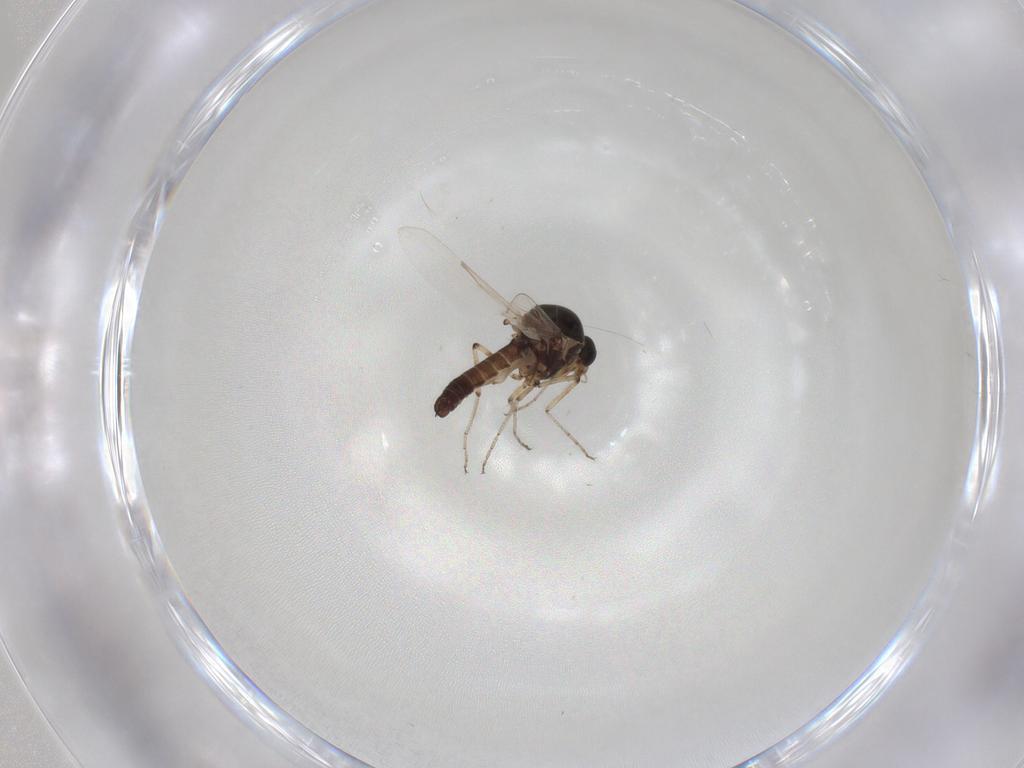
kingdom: Animalia
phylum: Arthropoda
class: Insecta
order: Diptera
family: Ceratopogonidae
